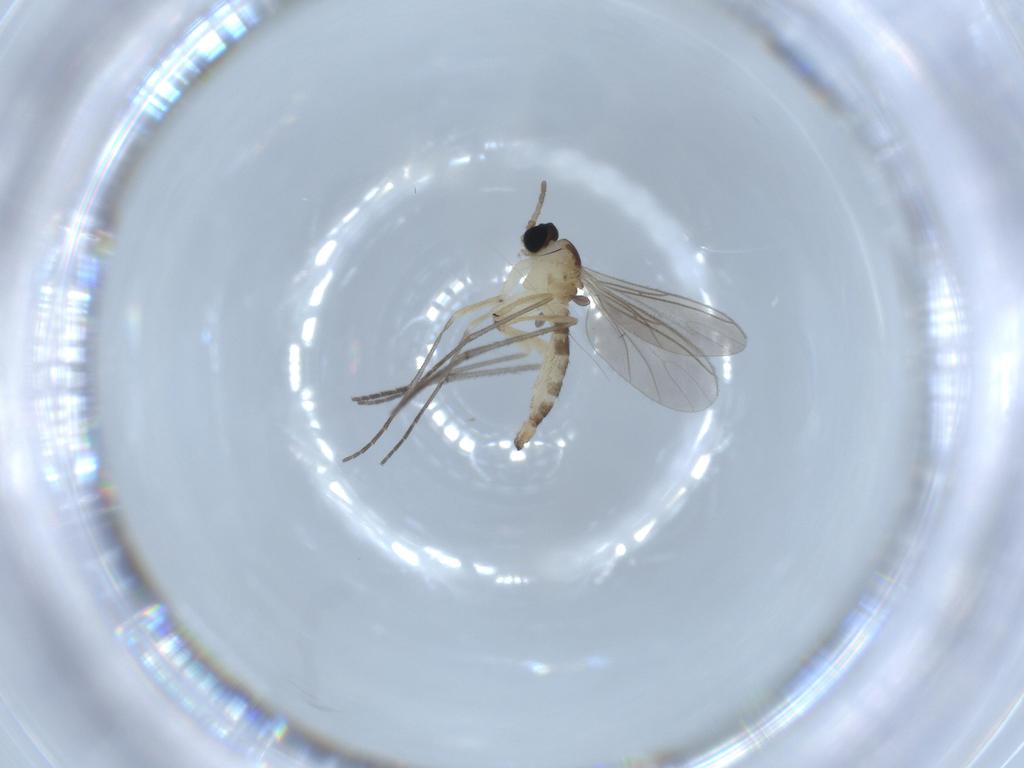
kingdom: Animalia
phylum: Arthropoda
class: Insecta
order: Diptera
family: Sciaridae
